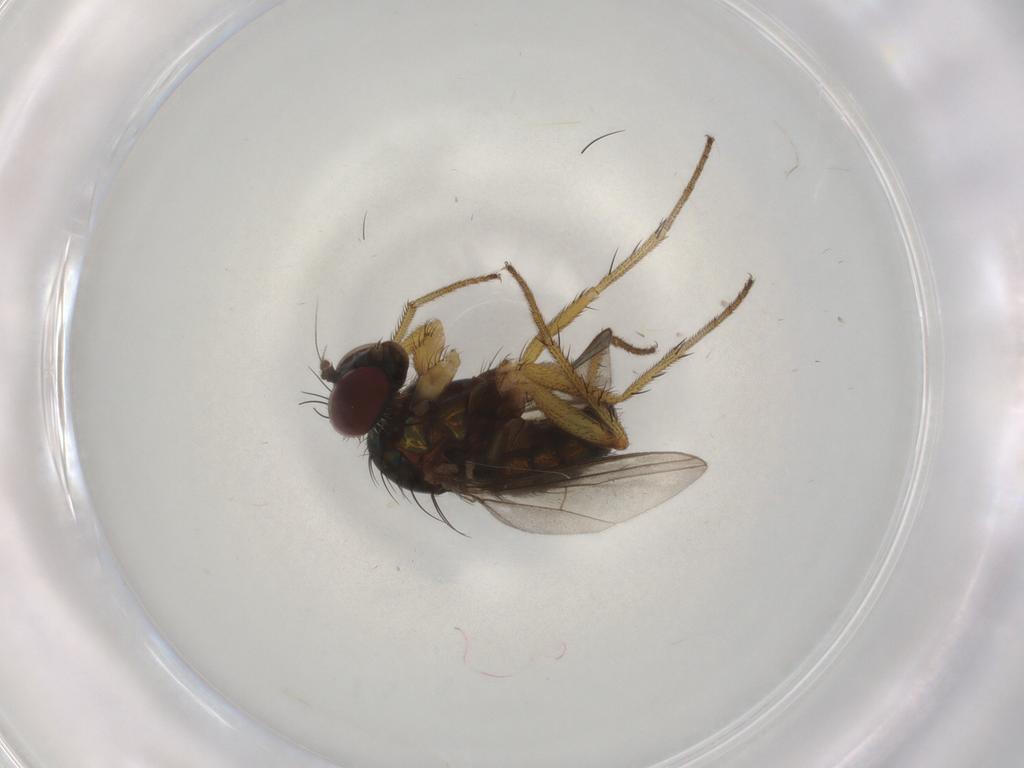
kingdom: Animalia
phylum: Arthropoda
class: Insecta
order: Diptera
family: Dolichopodidae
